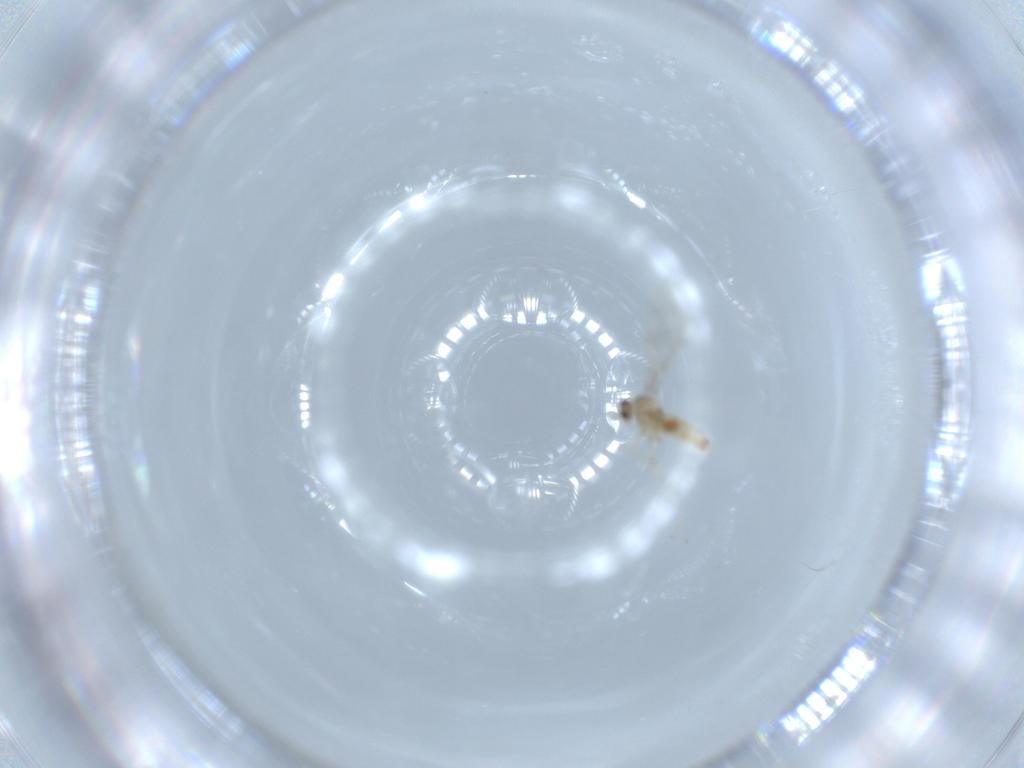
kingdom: Animalia
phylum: Arthropoda
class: Insecta
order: Diptera
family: Cecidomyiidae
